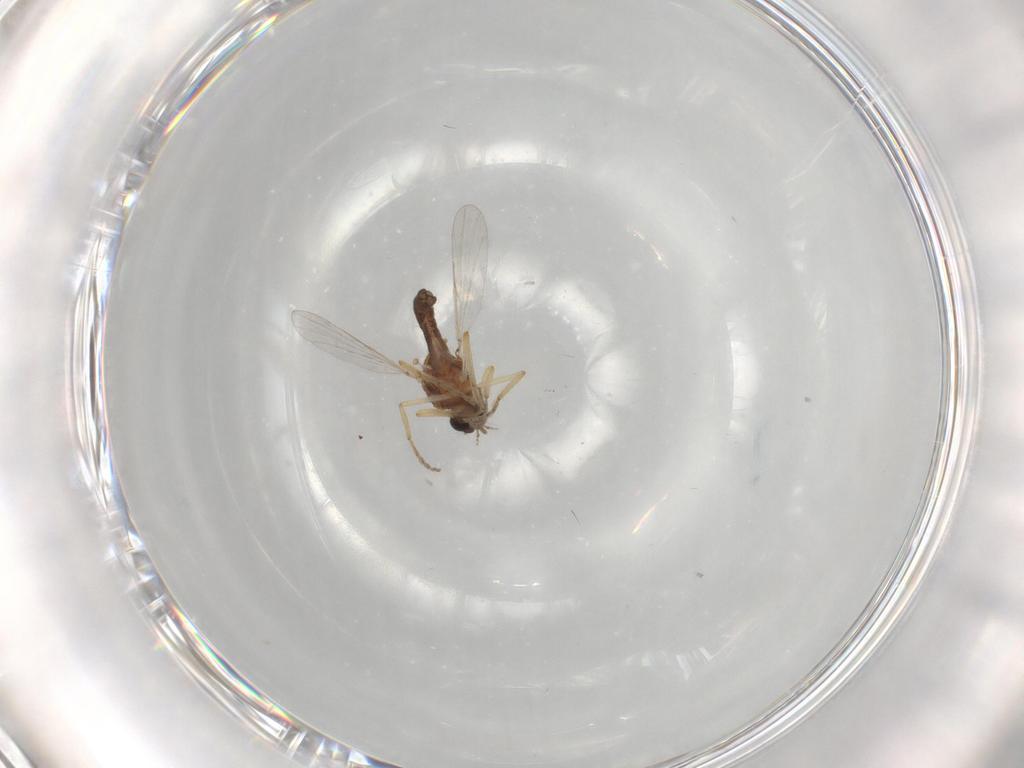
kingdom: Animalia
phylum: Arthropoda
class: Insecta
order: Diptera
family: Ceratopogonidae
